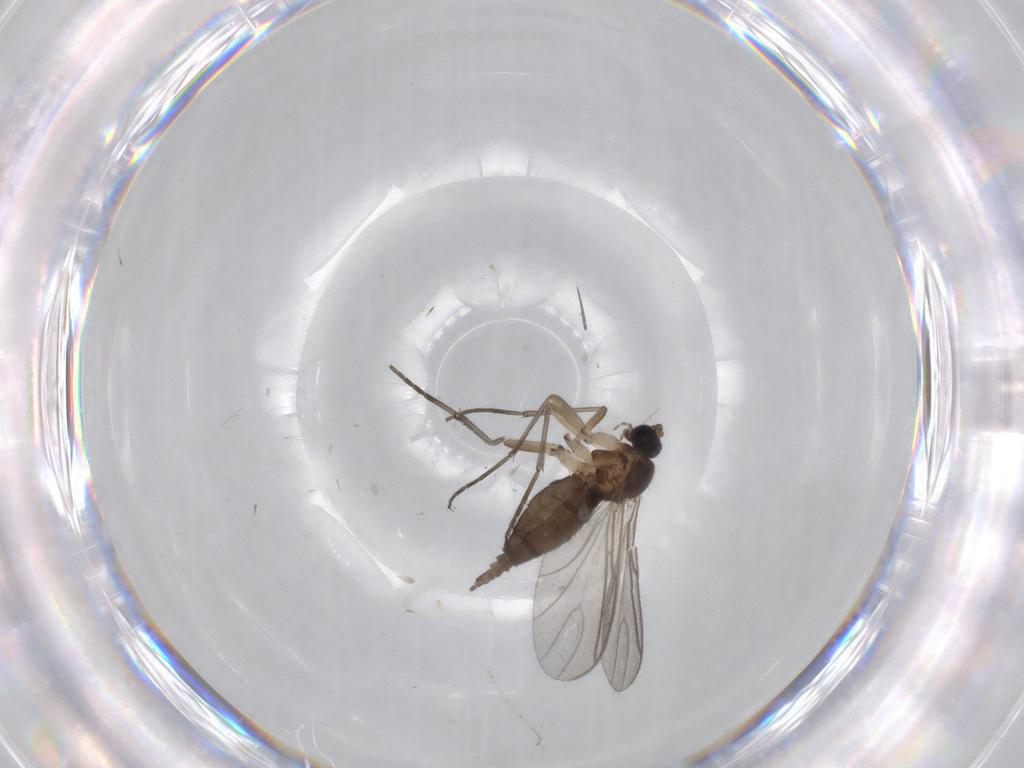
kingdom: Animalia
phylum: Arthropoda
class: Insecta
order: Diptera
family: Sciaridae
